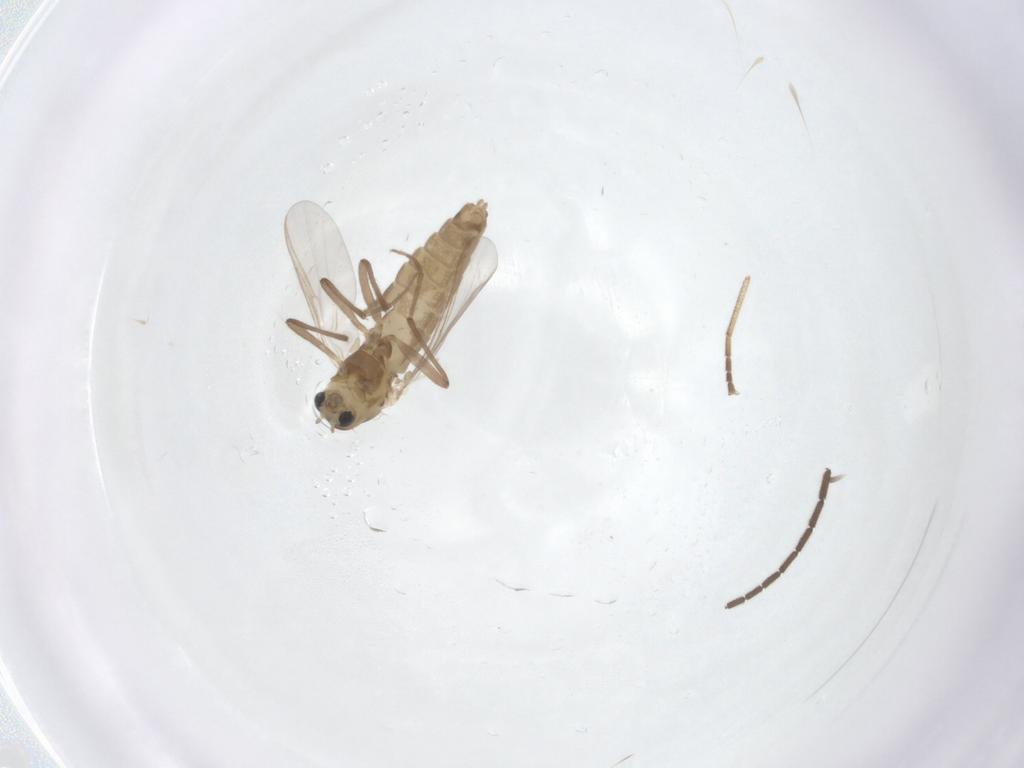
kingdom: Animalia
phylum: Arthropoda
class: Insecta
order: Diptera
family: Mycetophilidae
